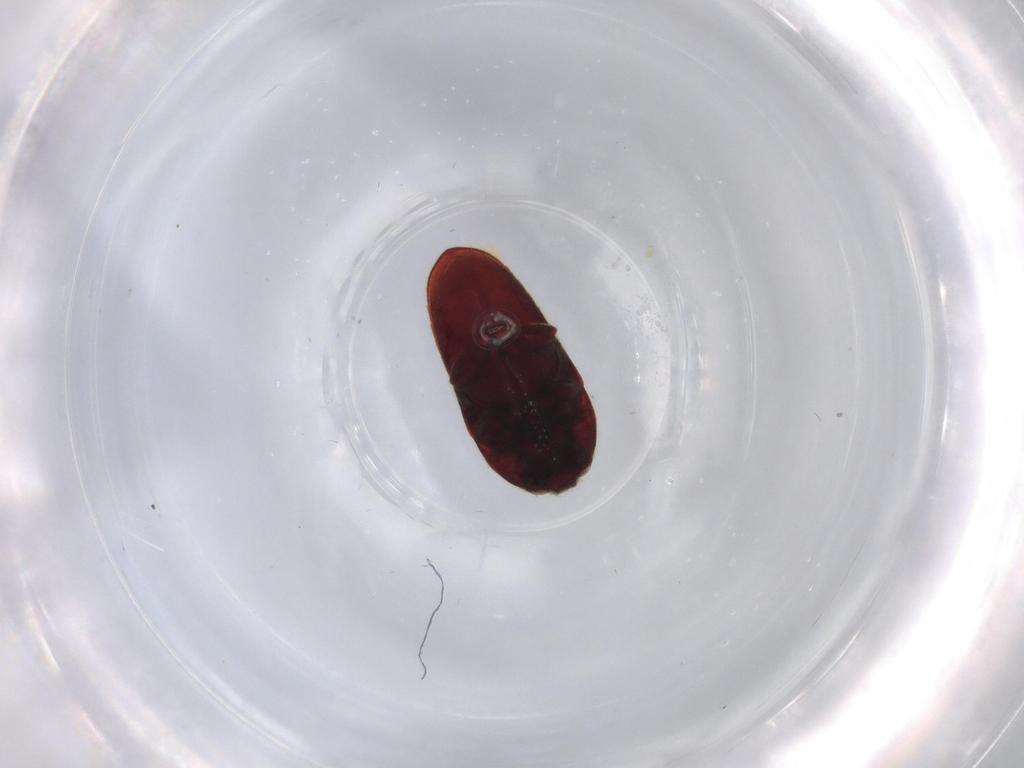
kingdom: Animalia
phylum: Arthropoda
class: Insecta
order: Coleoptera
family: Throscidae
